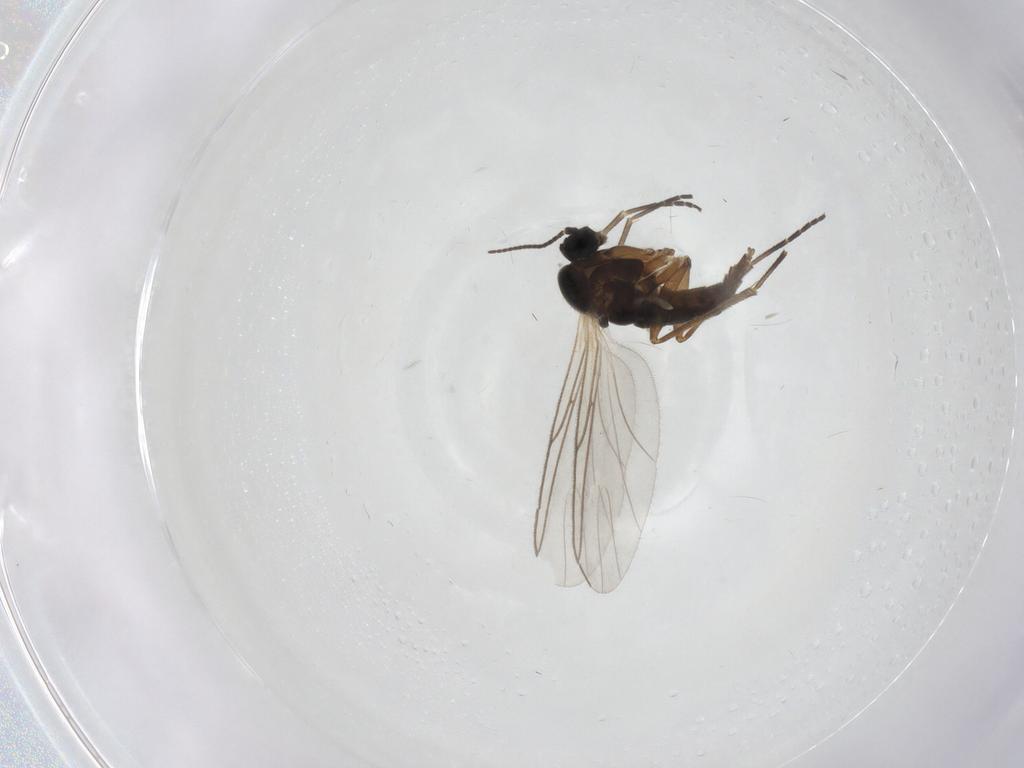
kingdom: Animalia
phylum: Arthropoda
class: Insecta
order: Diptera
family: Sciaridae
